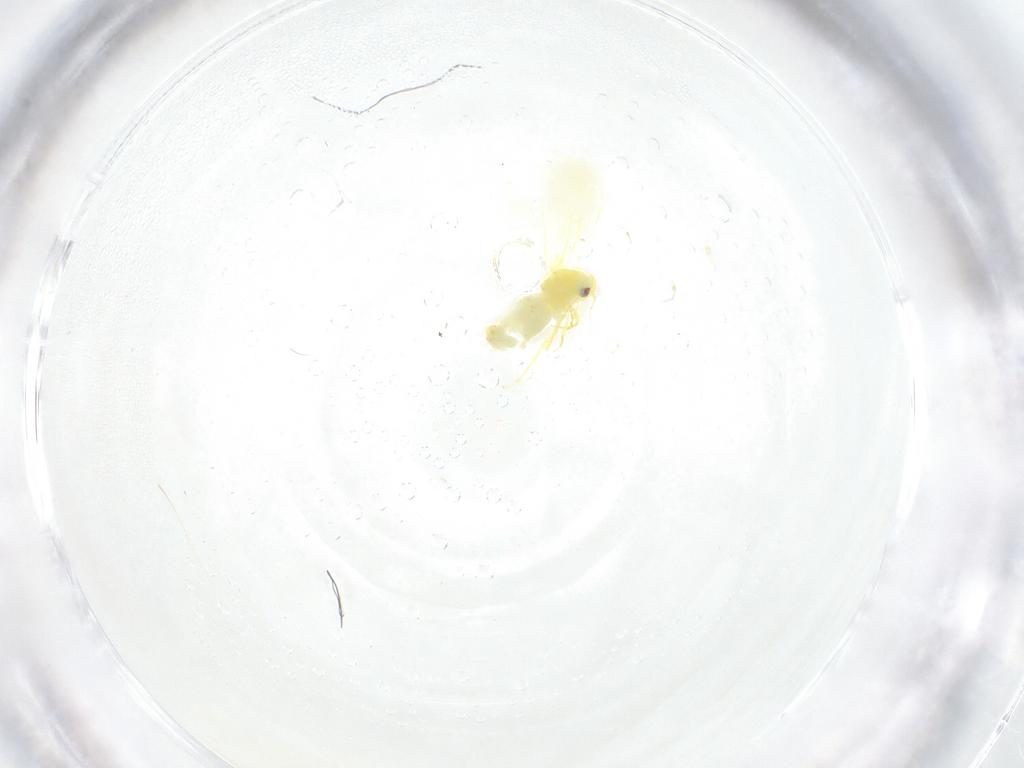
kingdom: Animalia
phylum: Arthropoda
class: Insecta
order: Hemiptera
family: Aleyrodidae
